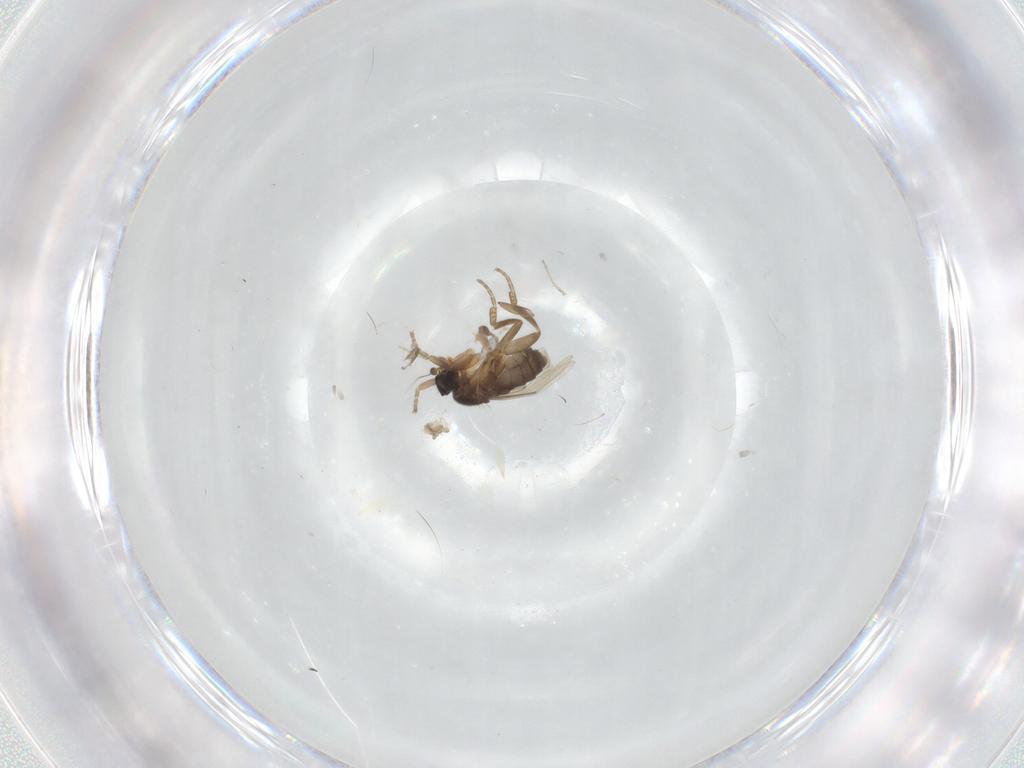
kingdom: Animalia
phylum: Arthropoda
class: Insecta
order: Diptera
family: Phoridae
